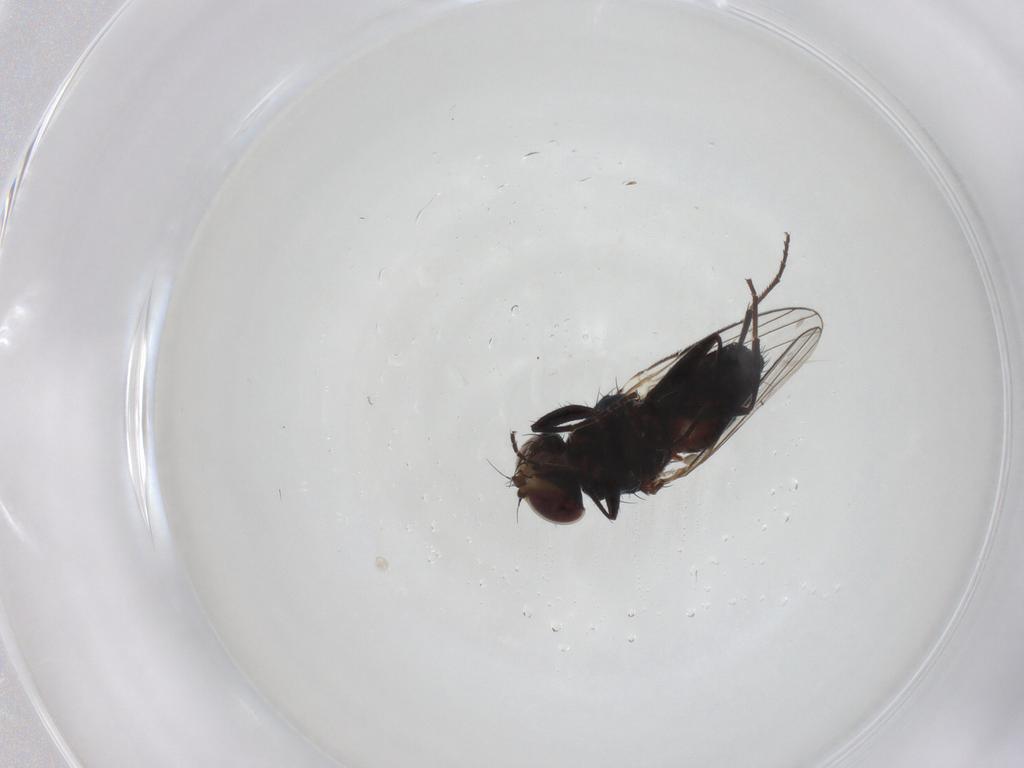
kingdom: Animalia
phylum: Arthropoda
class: Insecta
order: Diptera
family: Carnidae
